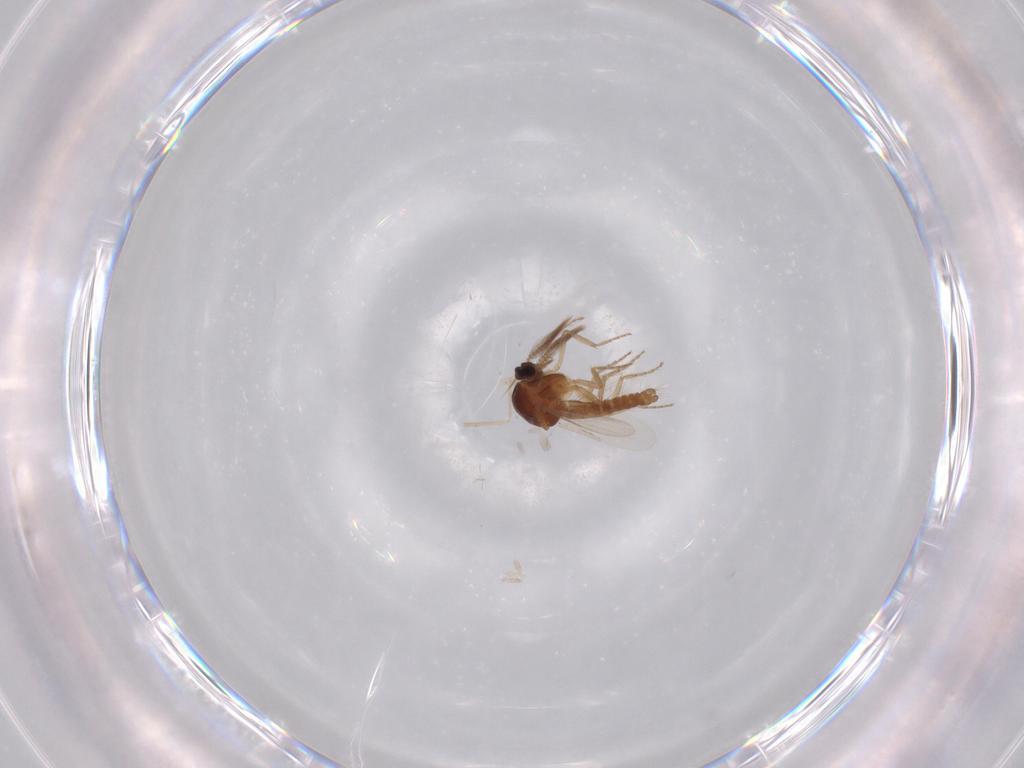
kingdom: Animalia
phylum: Arthropoda
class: Insecta
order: Diptera
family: Ceratopogonidae
